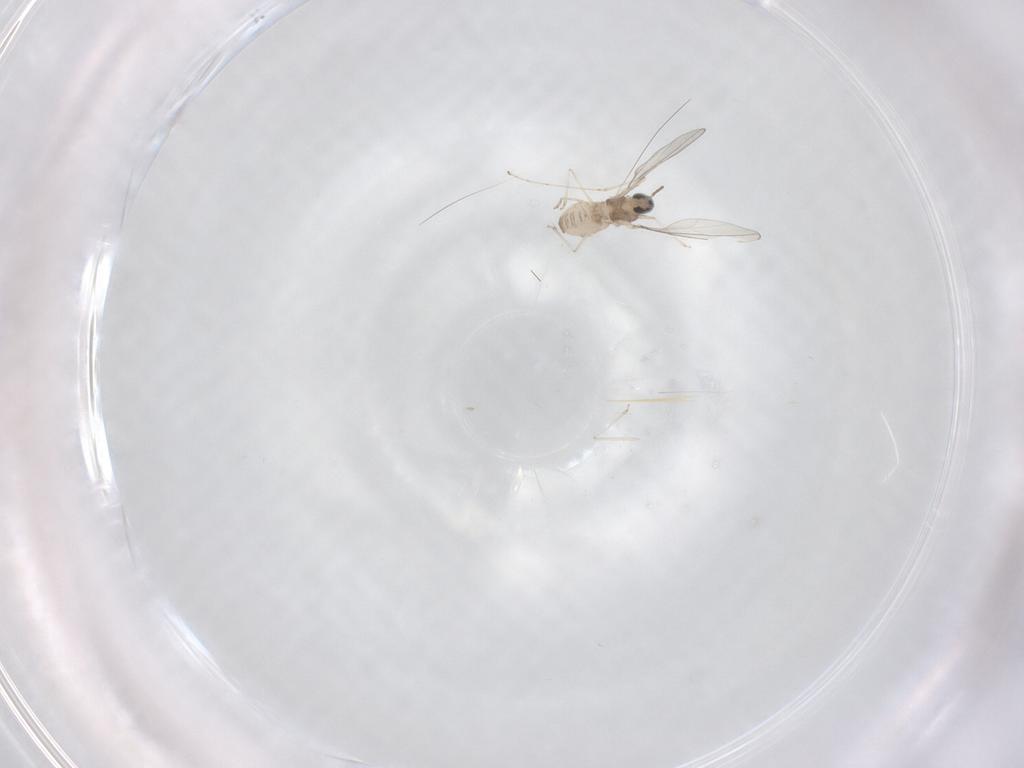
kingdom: Animalia
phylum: Arthropoda
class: Insecta
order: Diptera
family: Cecidomyiidae
